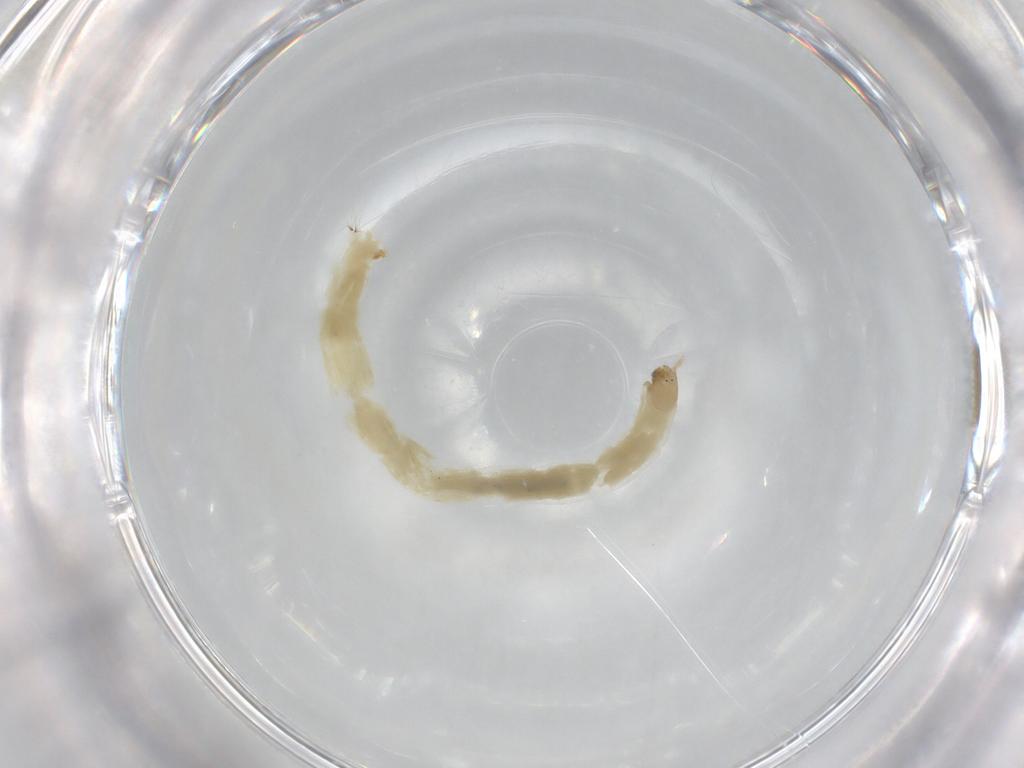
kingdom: Animalia
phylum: Arthropoda
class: Insecta
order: Diptera
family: Chironomidae
